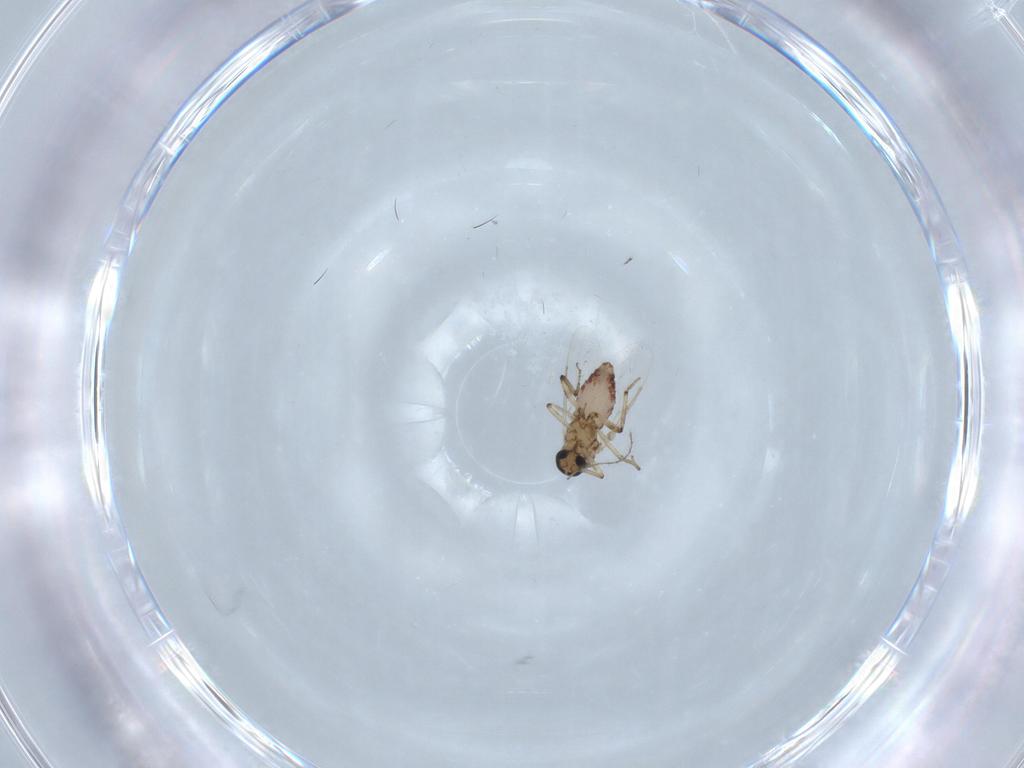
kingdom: Animalia
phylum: Arthropoda
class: Insecta
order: Diptera
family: Ceratopogonidae
